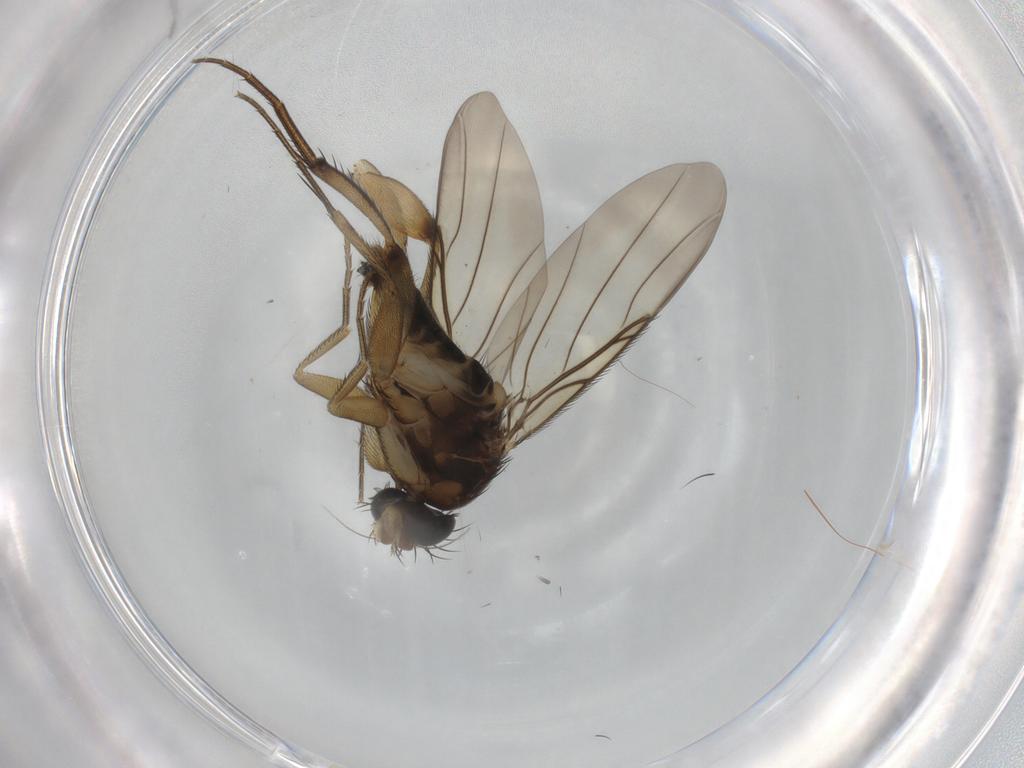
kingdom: Animalia
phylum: Arthropoda
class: Insecta
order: Diptera
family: Phoridae
